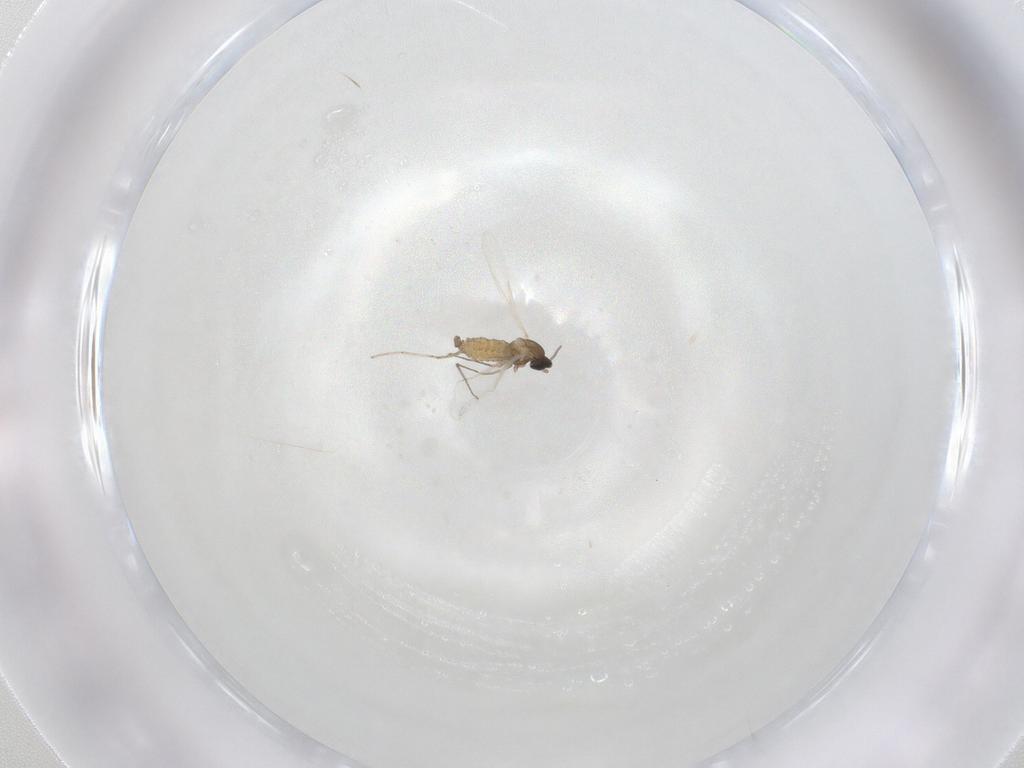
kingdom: Animalia
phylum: Arthropoda
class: Insecta
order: Diptera
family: Cecidomyiidae
